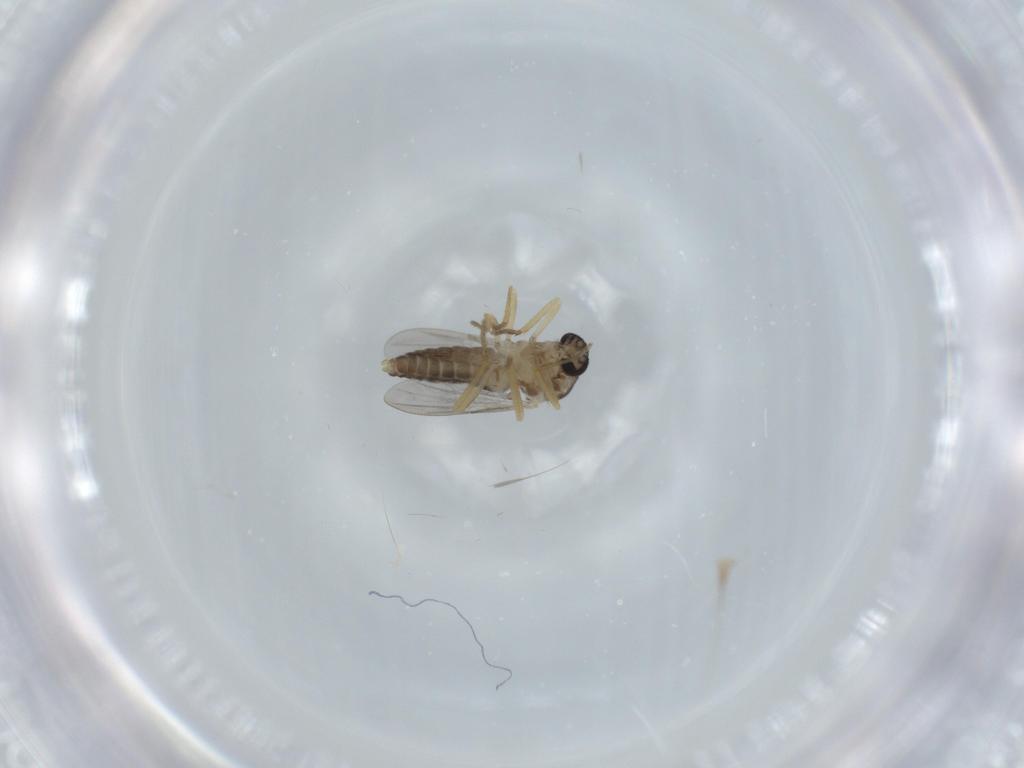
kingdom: Animalia
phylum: Arthropoda
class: Insecta
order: Diptera
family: Ceratopogonidae
